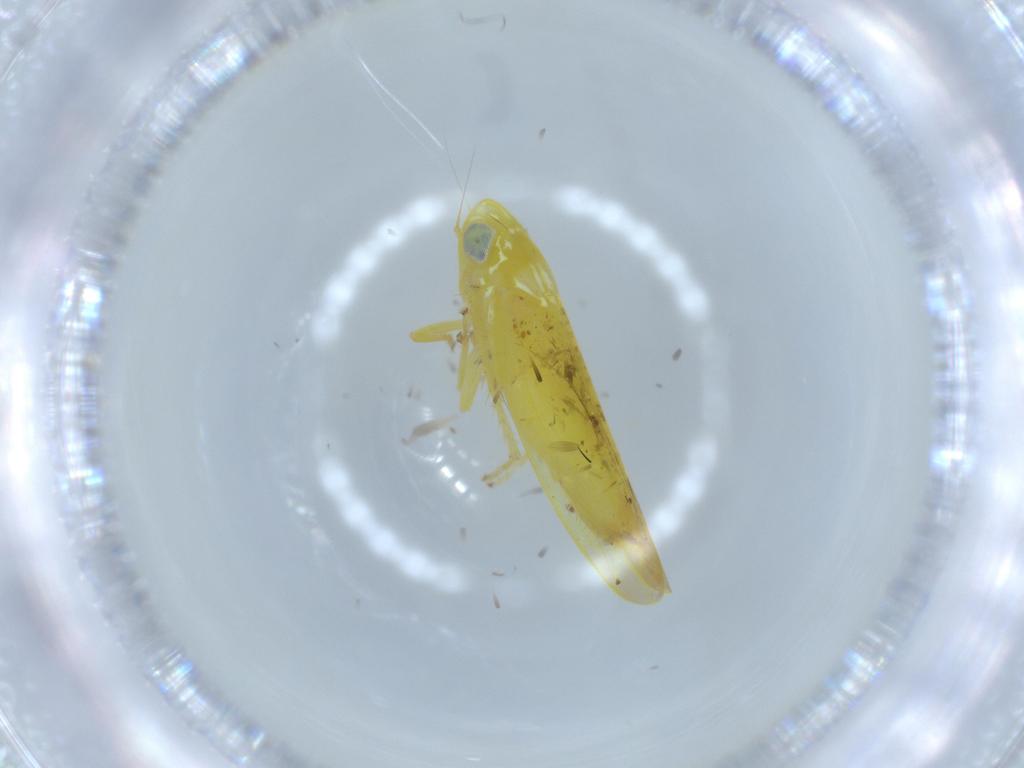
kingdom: Animalia
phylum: Arthropoda
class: Insecta
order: Hemiptera
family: Cicadellidae
